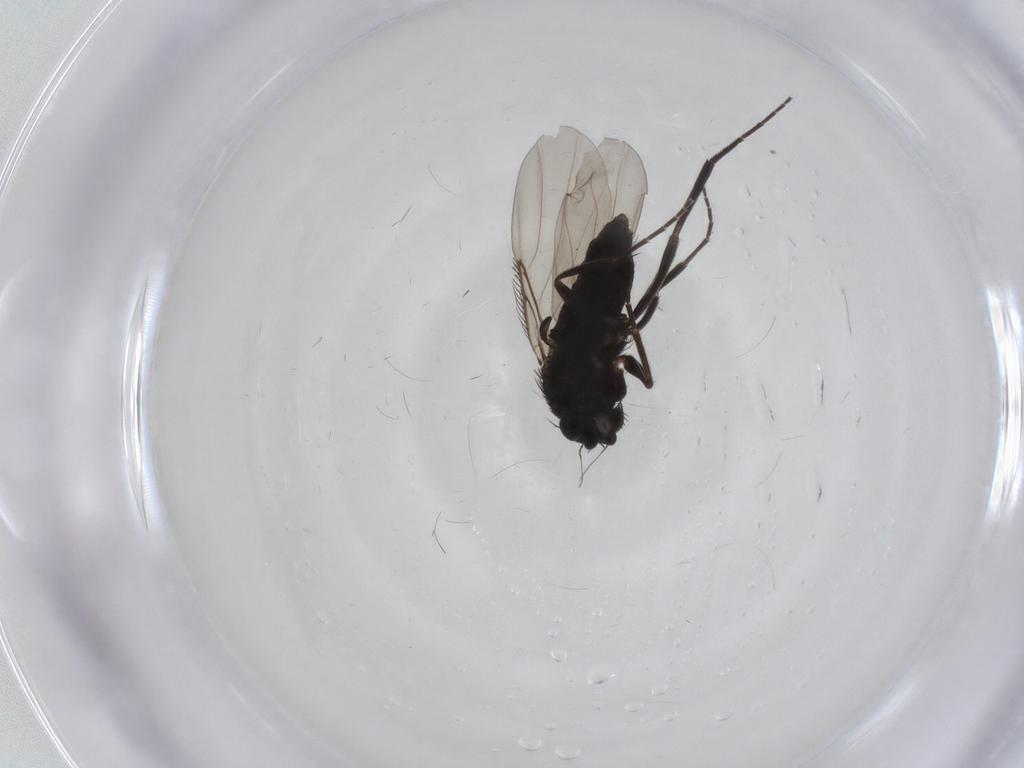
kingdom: Animalia
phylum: Arthropoda
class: Insecta
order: Diptera
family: Phoridae
